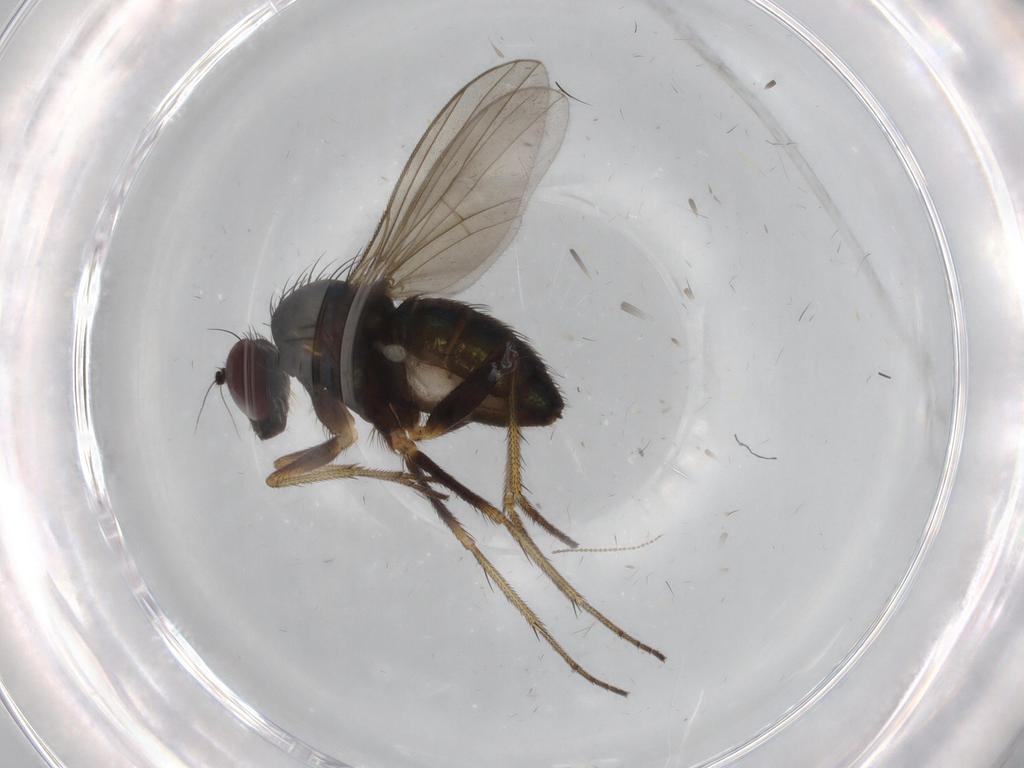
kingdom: Animalia
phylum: Arthropoda
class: Insecta
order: Diptera
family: Cecidomyiidae
